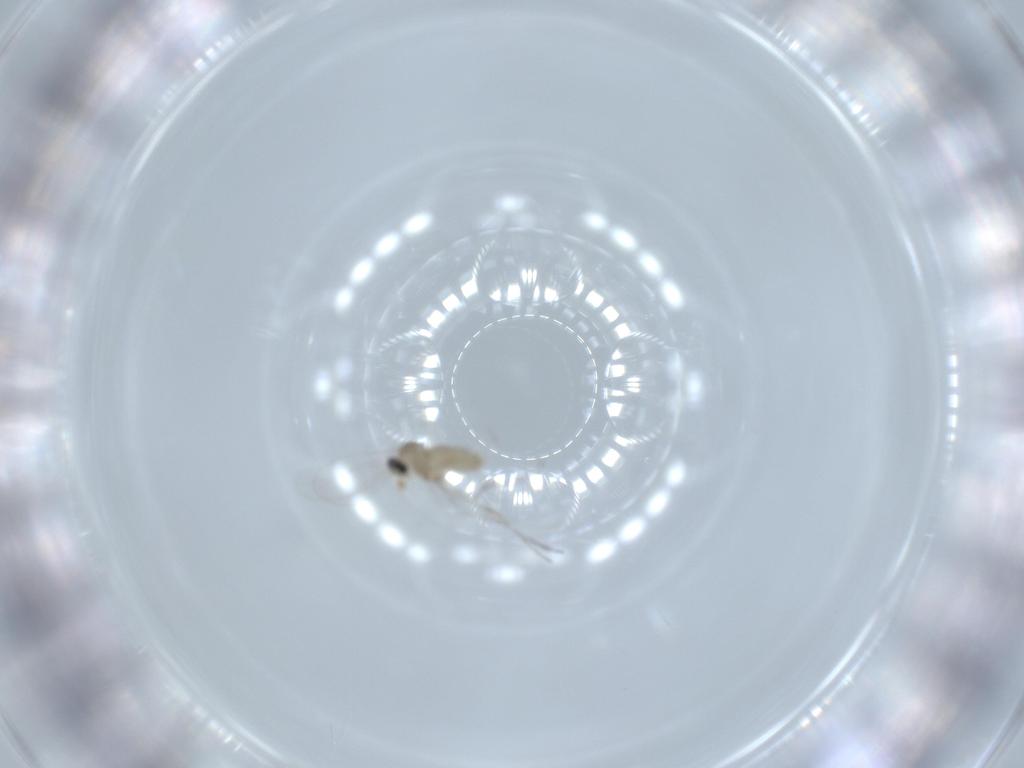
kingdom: Animalia
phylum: Arthropoda
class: Insecta
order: Diptera
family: Cecidomyiidae
